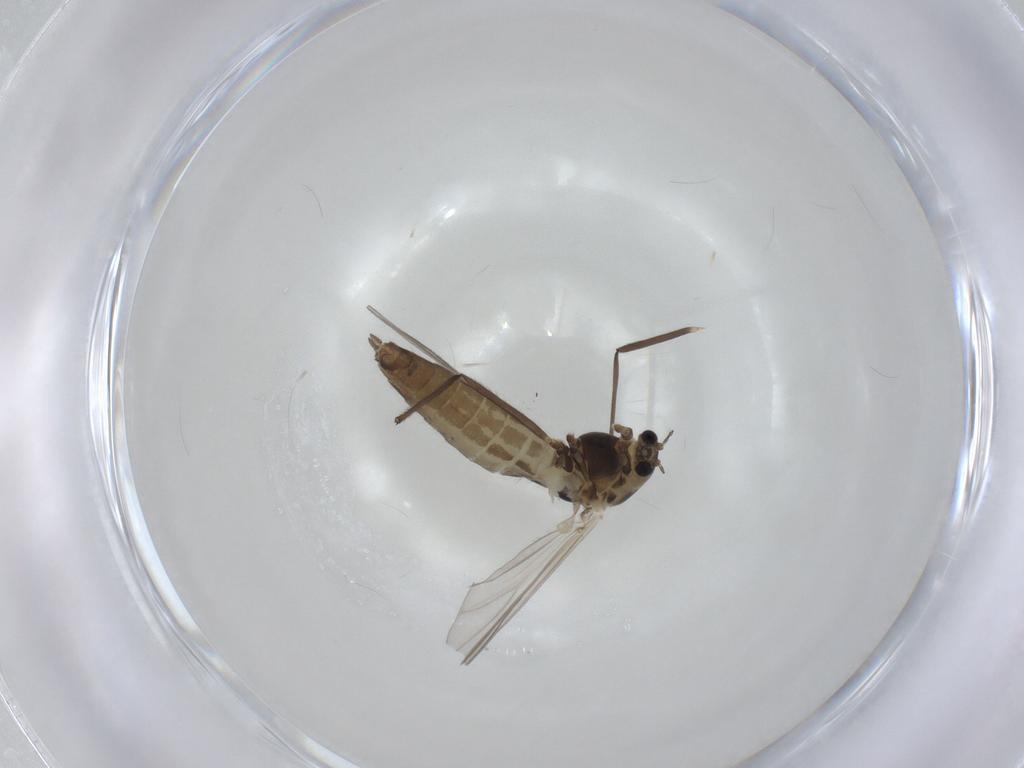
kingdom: Animalia
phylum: Arthropoda
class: Insecta
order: Diptera
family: Chironomidae
